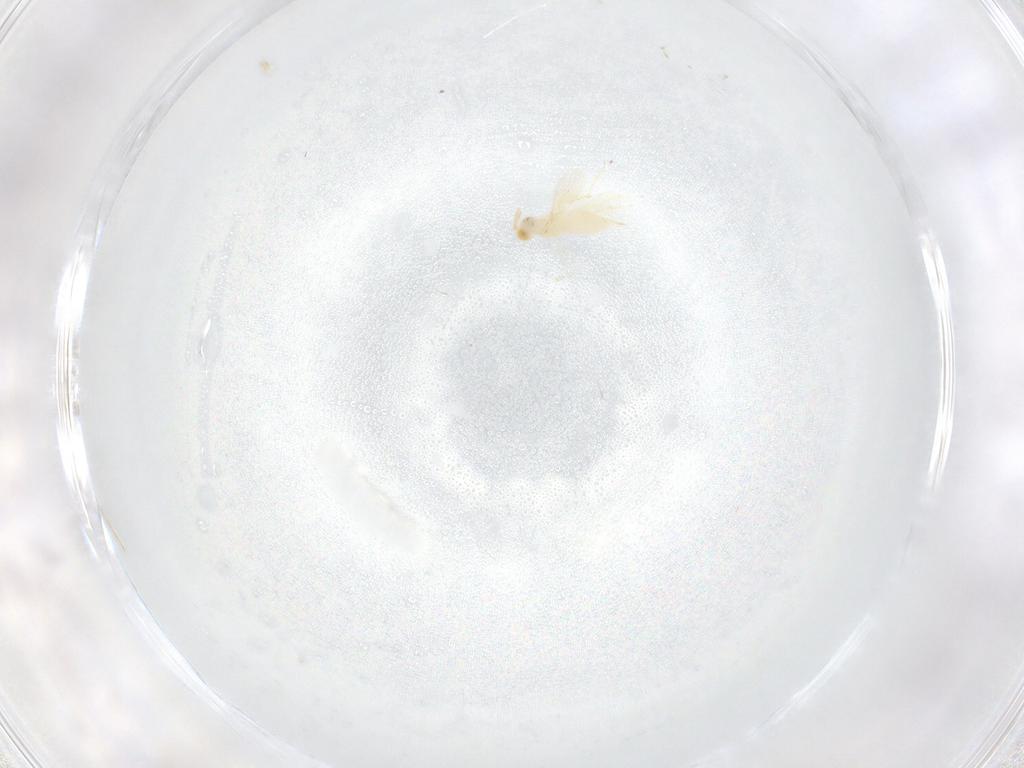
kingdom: Animalia
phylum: Arthropoda
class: Insecta
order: Hymenoptera
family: Aphelinidae
